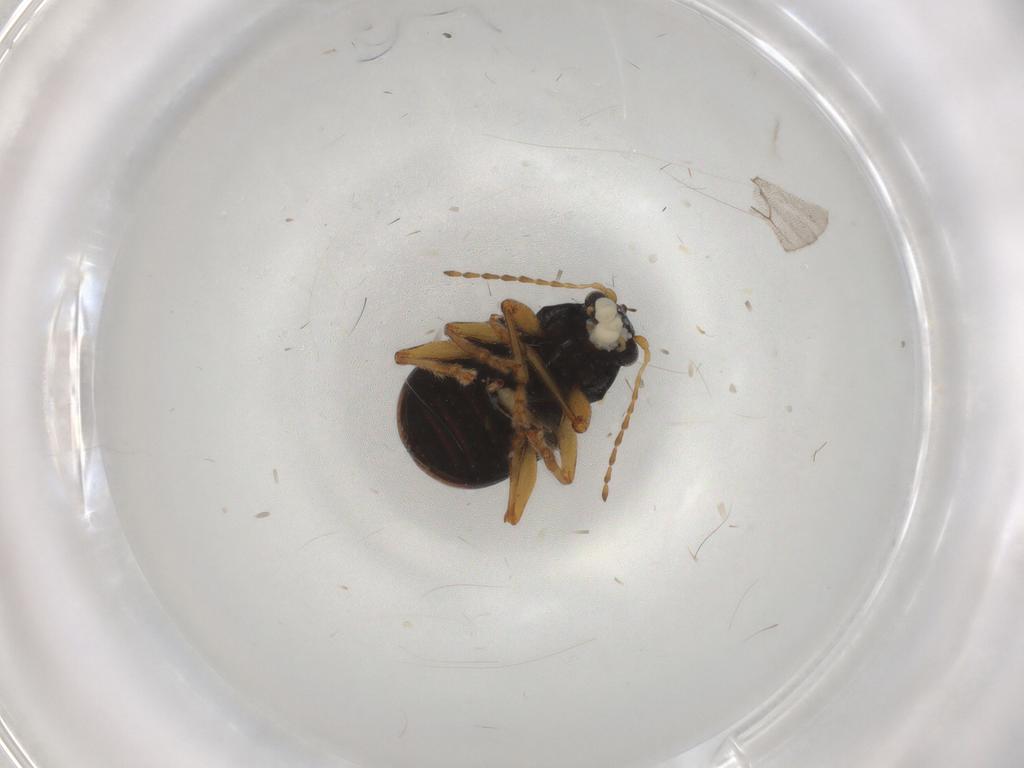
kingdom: Animalia
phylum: Arthropoda
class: Insecta
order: Coleoptera
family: Chrysomelidae
